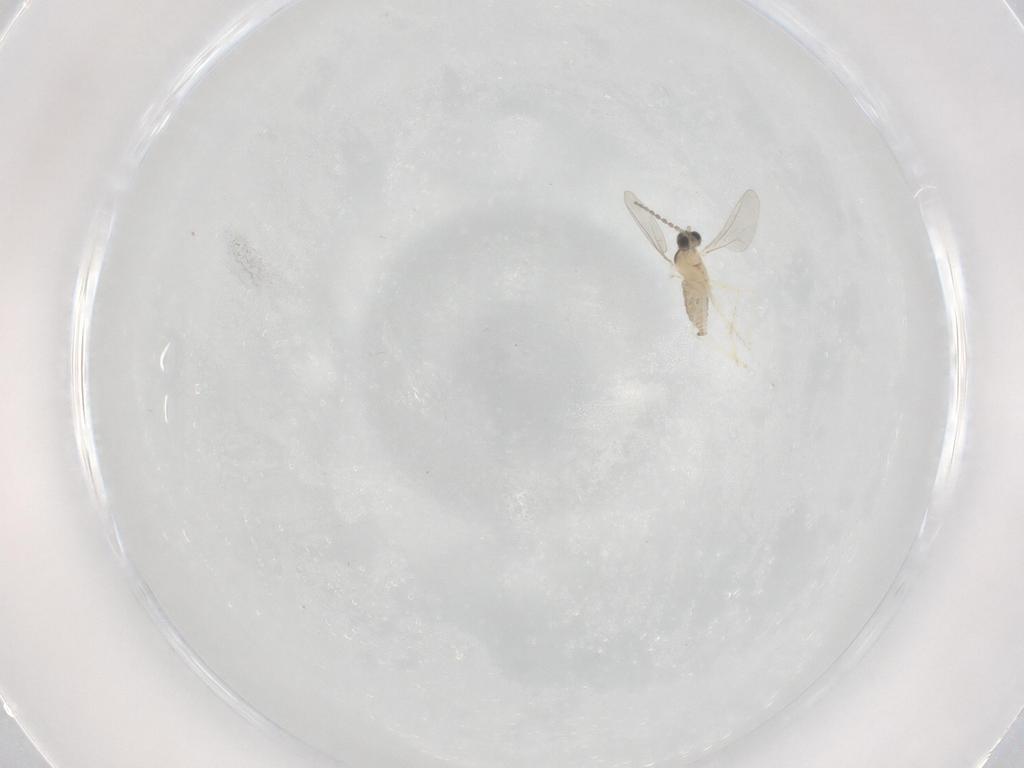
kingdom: Animalia
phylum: Arthropoda
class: Insecta
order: Diptera
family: Cecidomyiidae
